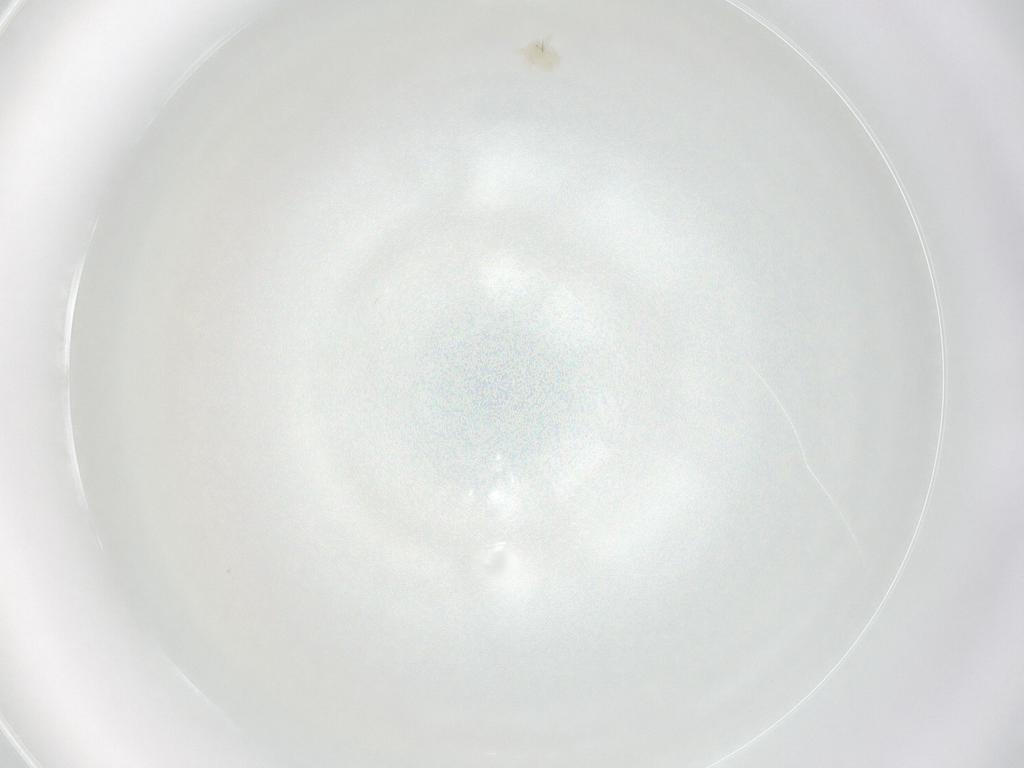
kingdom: Animalia
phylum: Arthropoda
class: Arachnida
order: Trombidiformes
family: Anystidae
